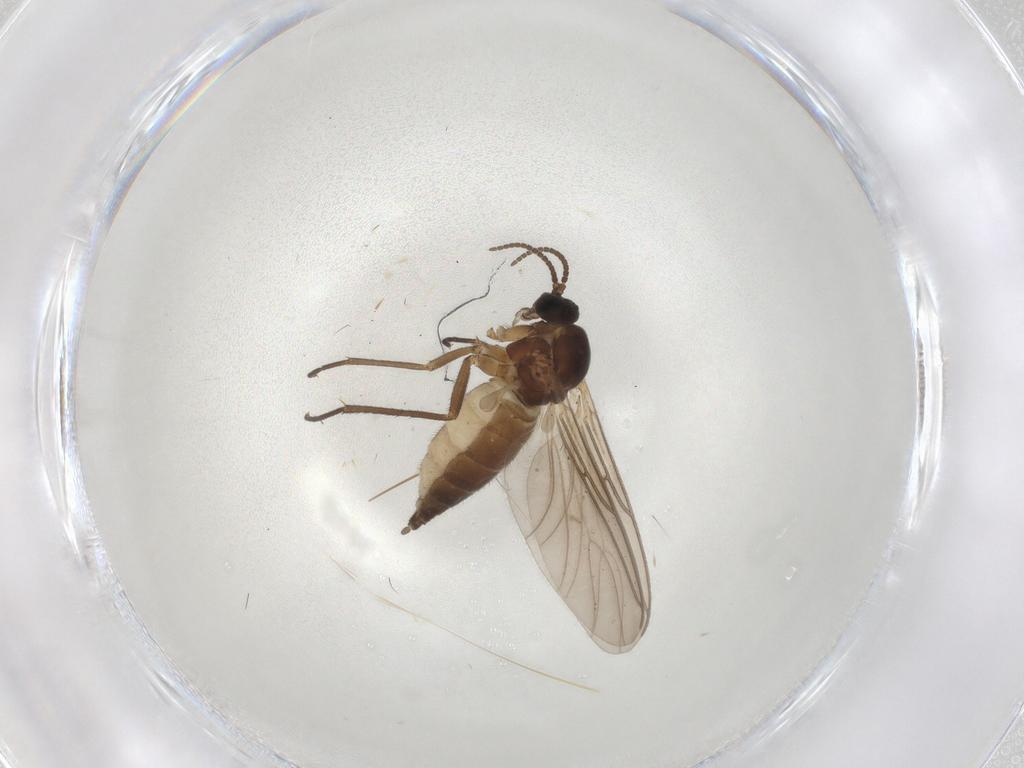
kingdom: Animalia
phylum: Arthropoda
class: Insecta
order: Diptera
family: Sciaridae
